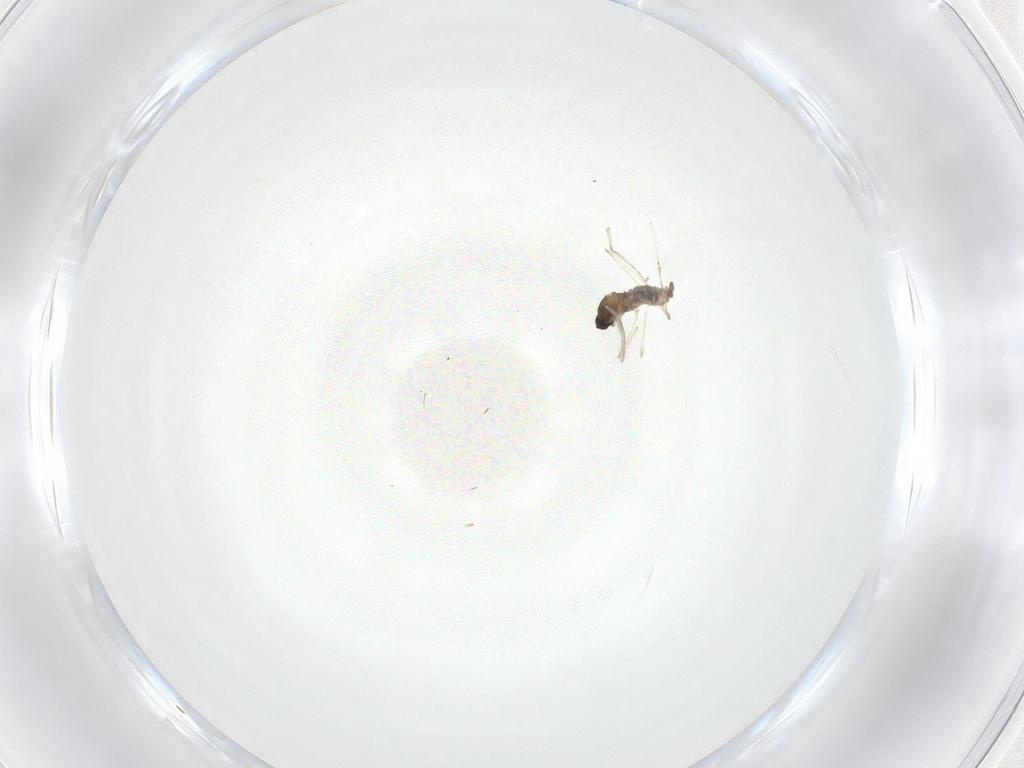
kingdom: Animalia
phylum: Arthropoda
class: Insecta
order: Diptera
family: Cecidomyiidae
